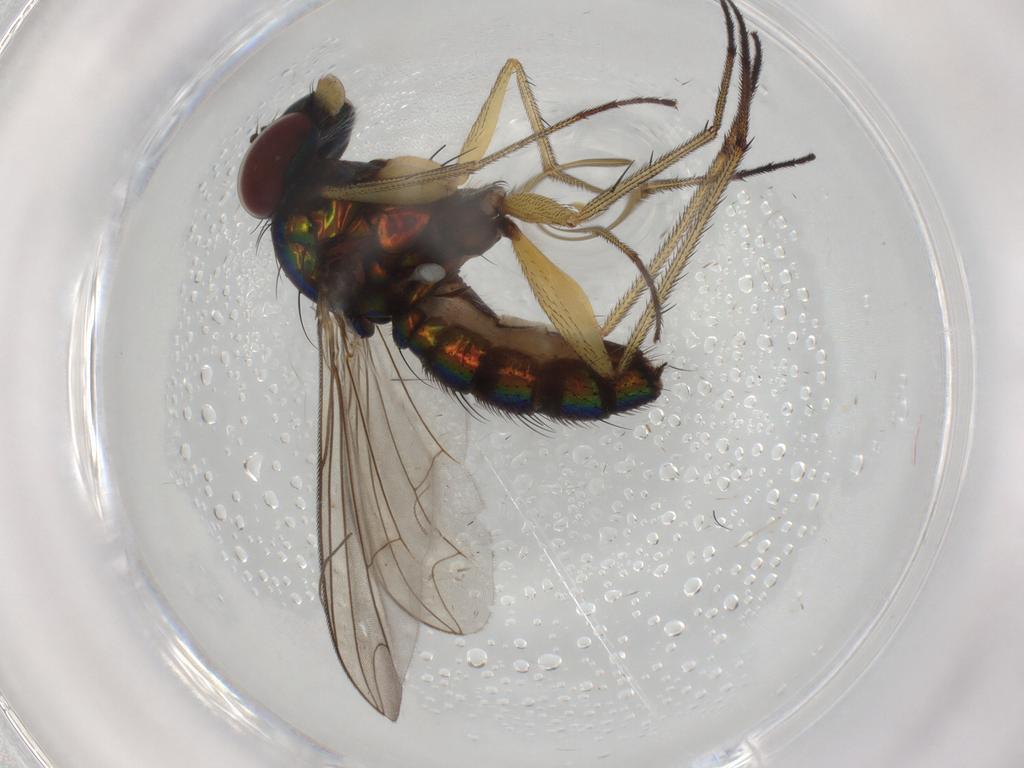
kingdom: Animalia
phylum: Arthropoda
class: Insecta
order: Diptera
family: Dolichopodidae
